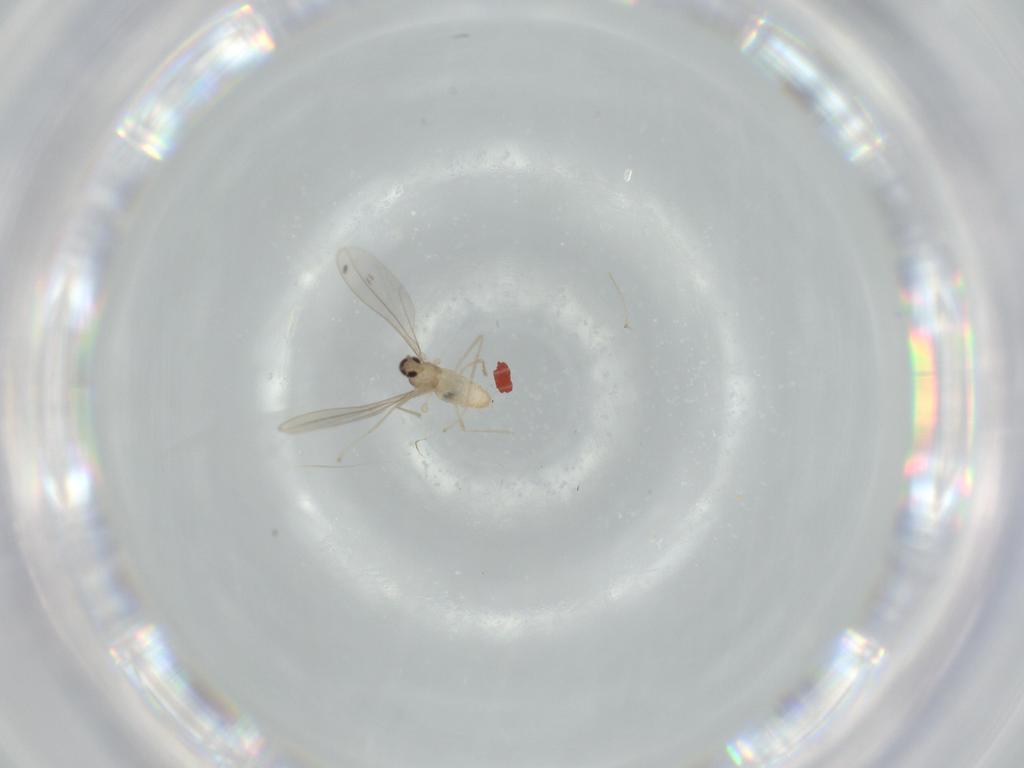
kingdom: Animalia
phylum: Arthropoda
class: Insecta
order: Diptera
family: Cecidomyiidae
